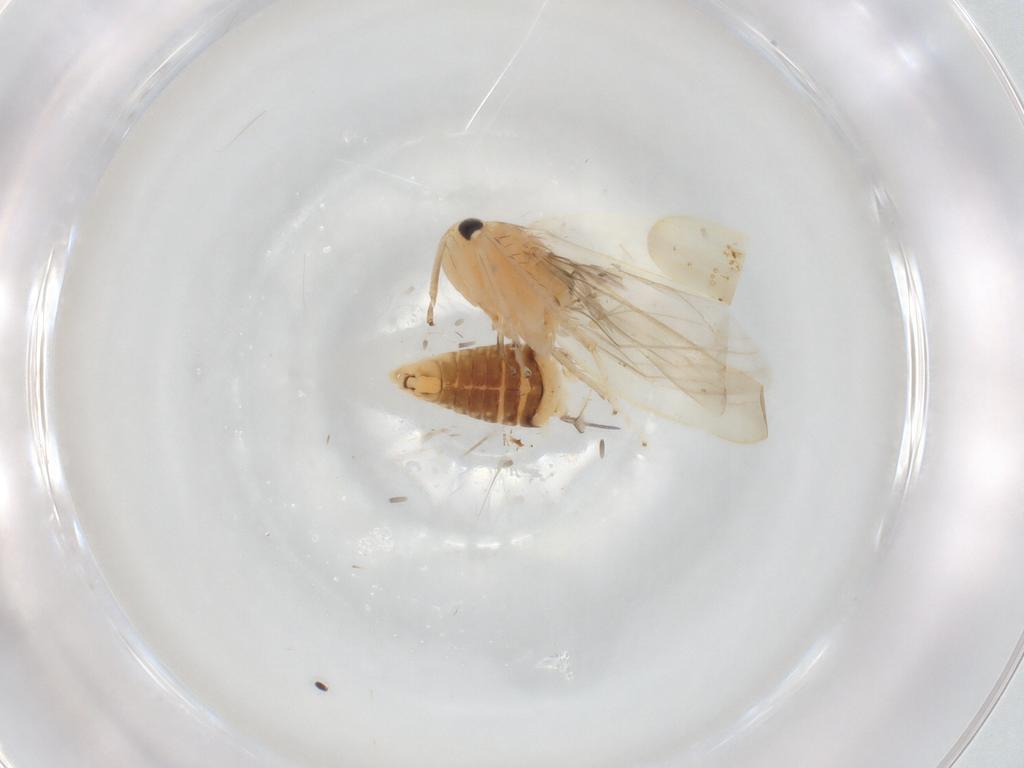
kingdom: Animalia
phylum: Arthropoda
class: Insecta
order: Hemiptera
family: Cicadellidae
